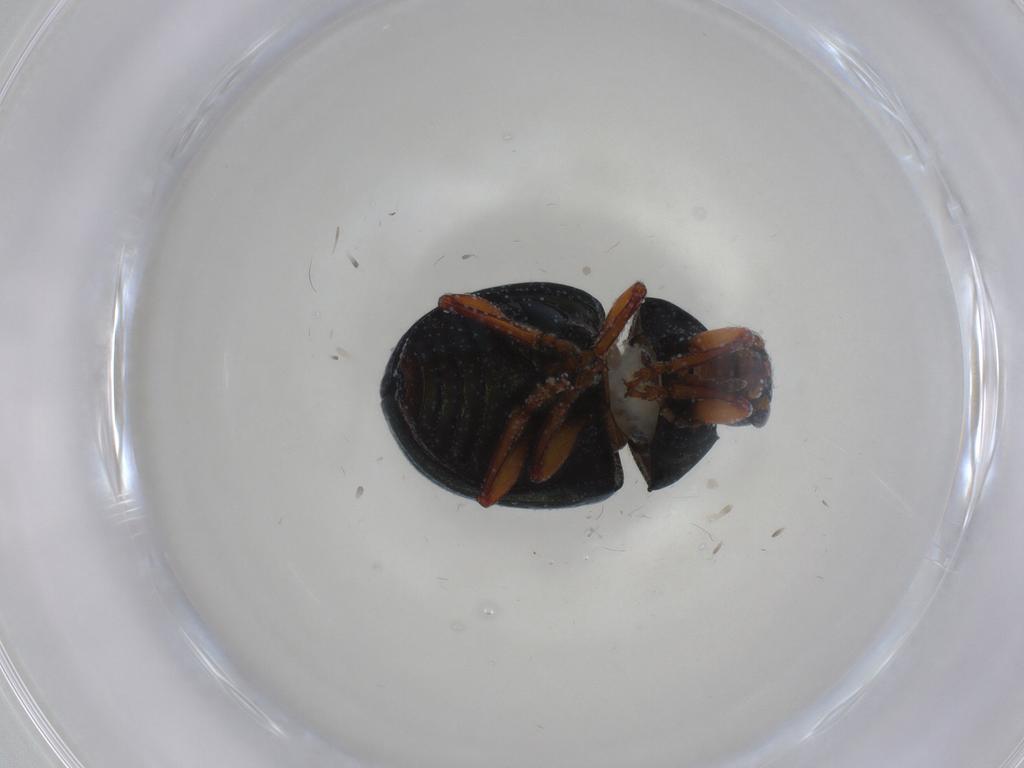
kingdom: Animalia
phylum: Arthropoda
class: Insecta
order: Coleoptera
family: Chrysomelidae
